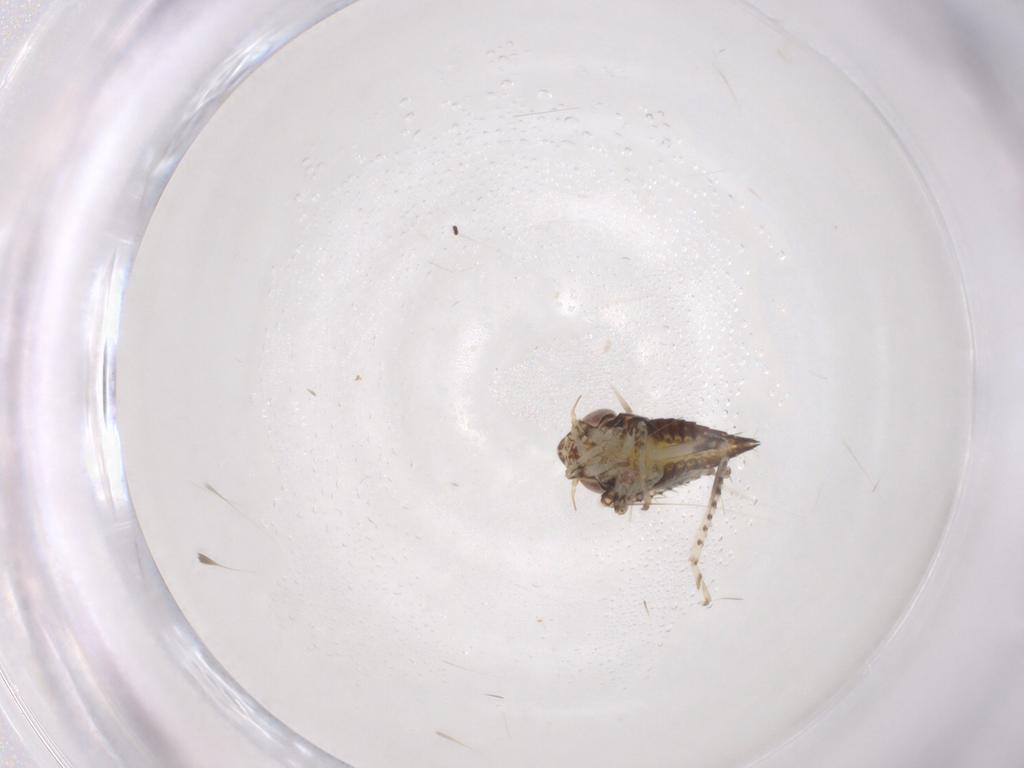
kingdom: Animalia
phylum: Arthropoda
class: Insecta
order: Hemiptera
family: Cicadellidae
